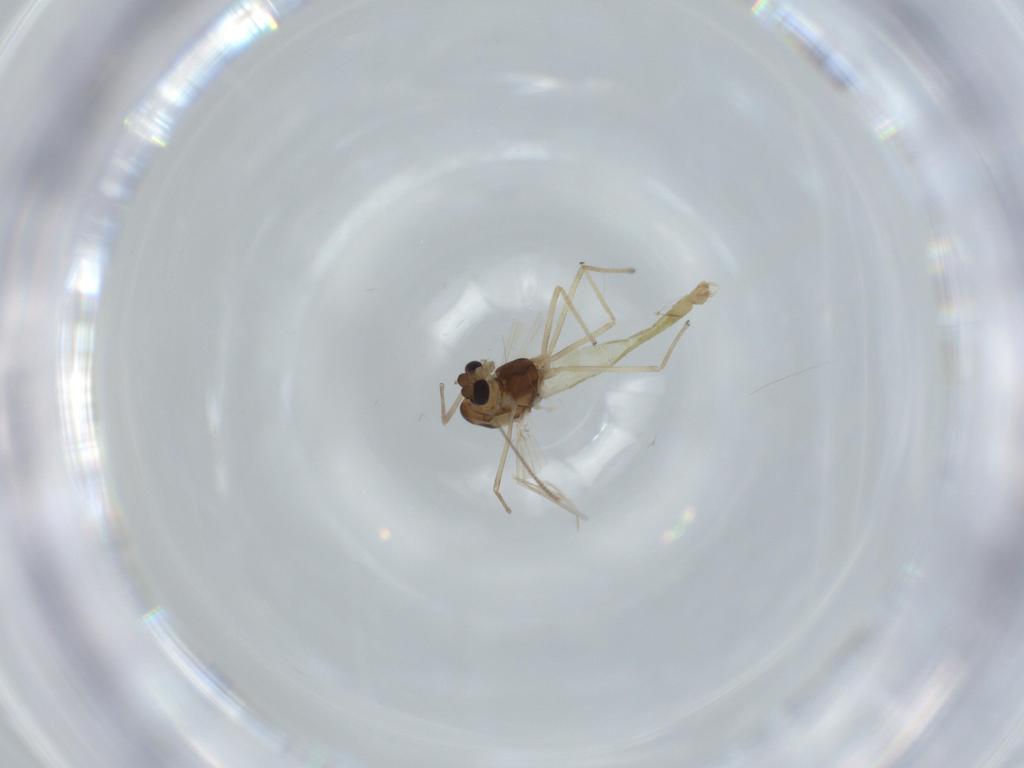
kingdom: Animalia
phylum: Arthropoda
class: Insecta
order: Diptera
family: Chironomidae
